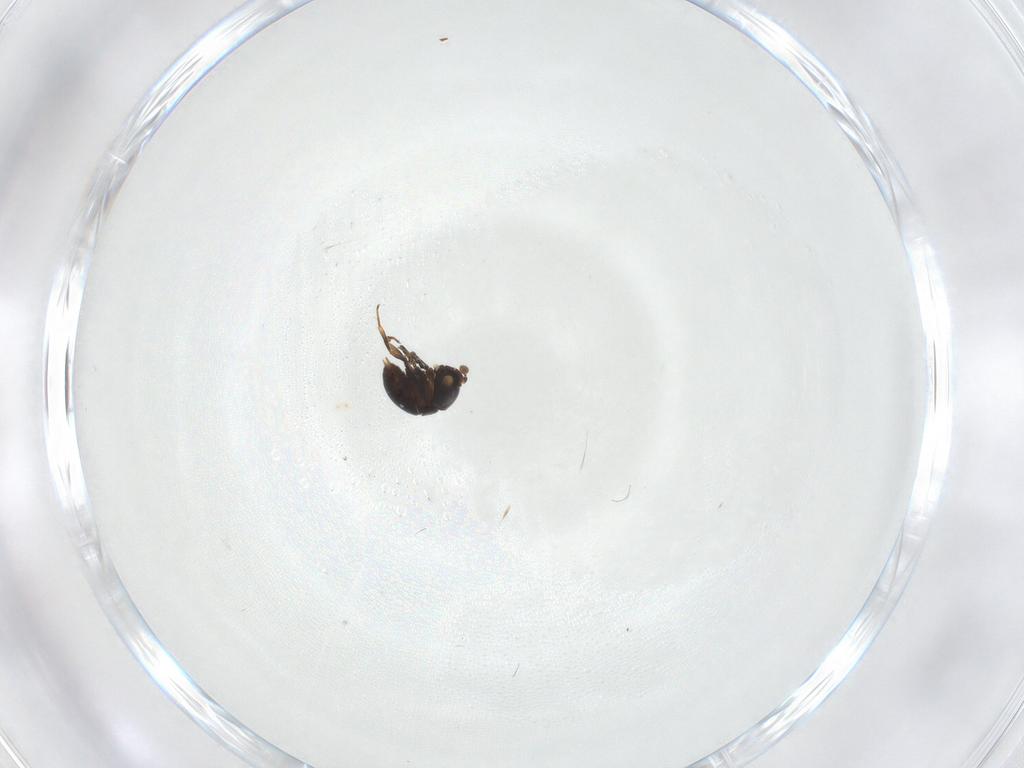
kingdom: Animalia
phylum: Arthropoda
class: Insecta
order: Hymenoptera
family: Scelionidae
